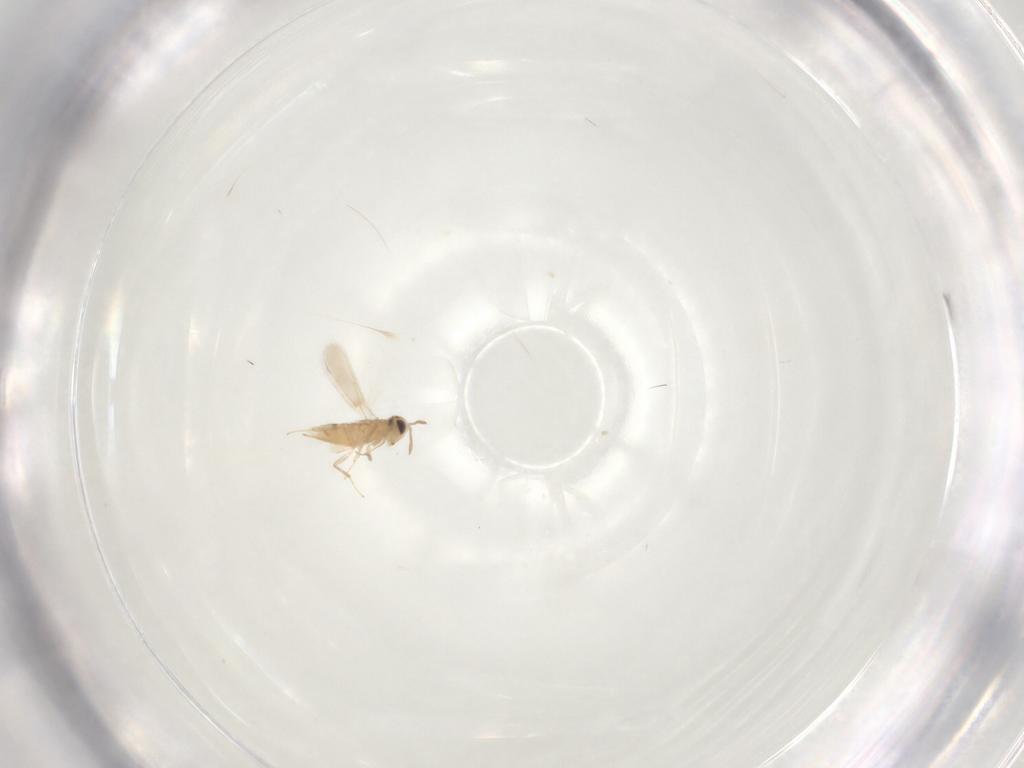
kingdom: Animalia
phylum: Arthropoda
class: Insecta
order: Hymenoptera
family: Aphelinidae
